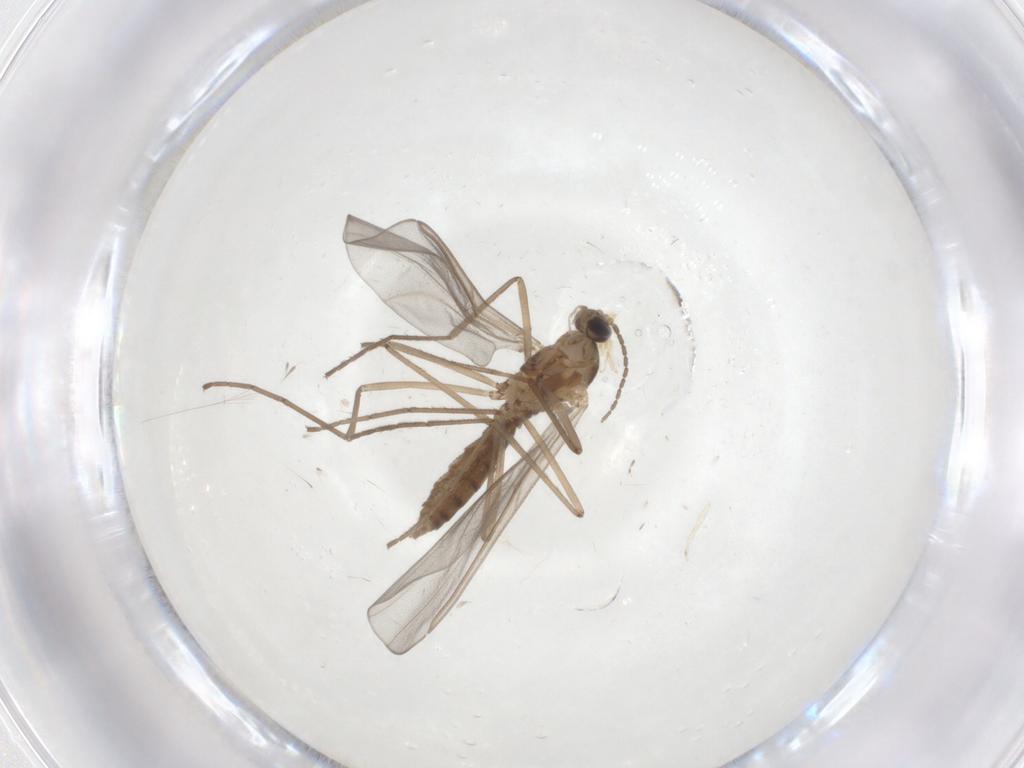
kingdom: Animalia
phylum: Arthropoda
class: Insecta
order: Diptera
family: Cecidomyiidae
